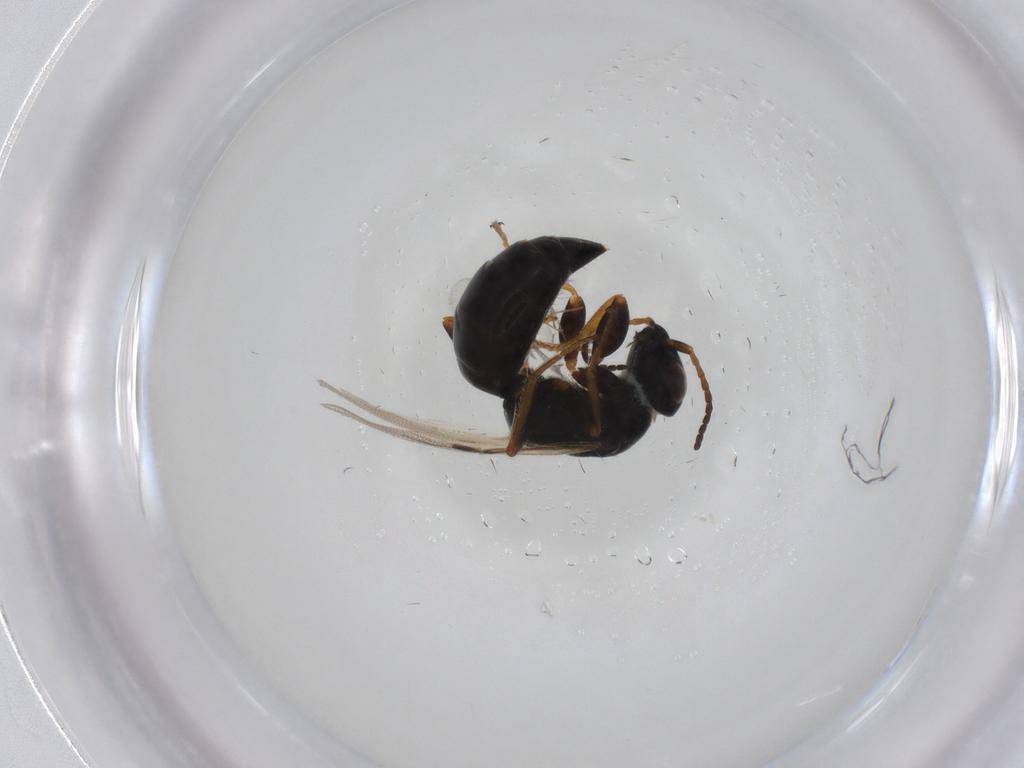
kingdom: Animalia
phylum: Arthropoda
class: Insecta
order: Hymenoptera
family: Bethylidae
